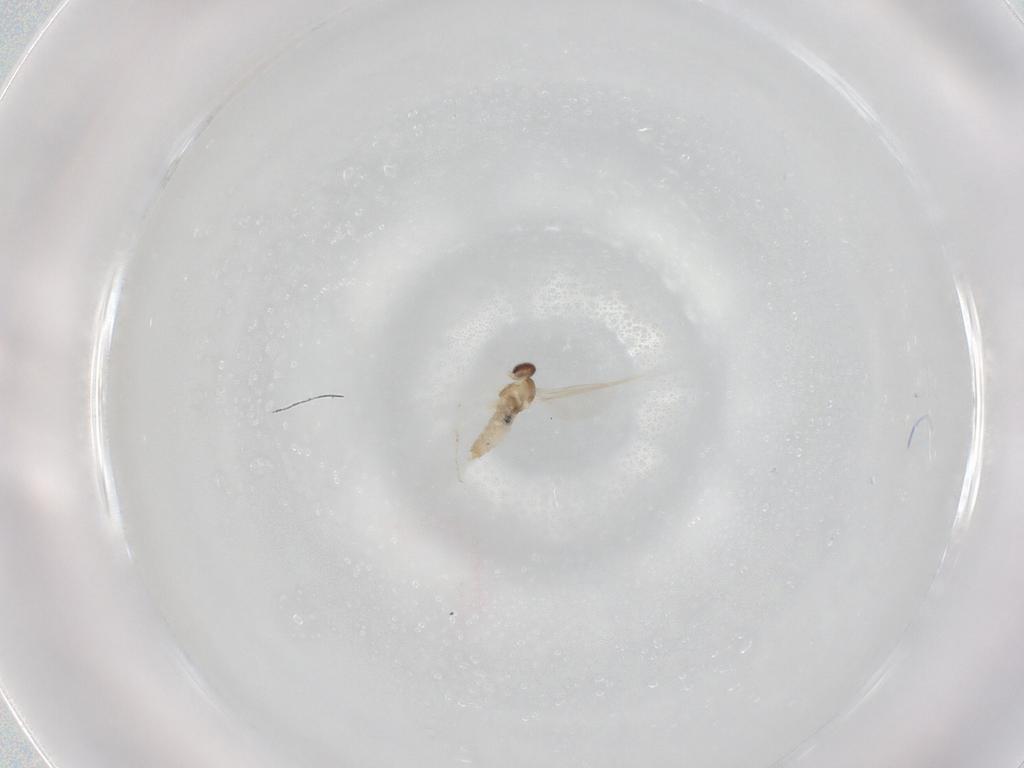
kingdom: Animalia
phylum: Arthropoda
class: Insecta
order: Diptera
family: Cecidomyiidae
